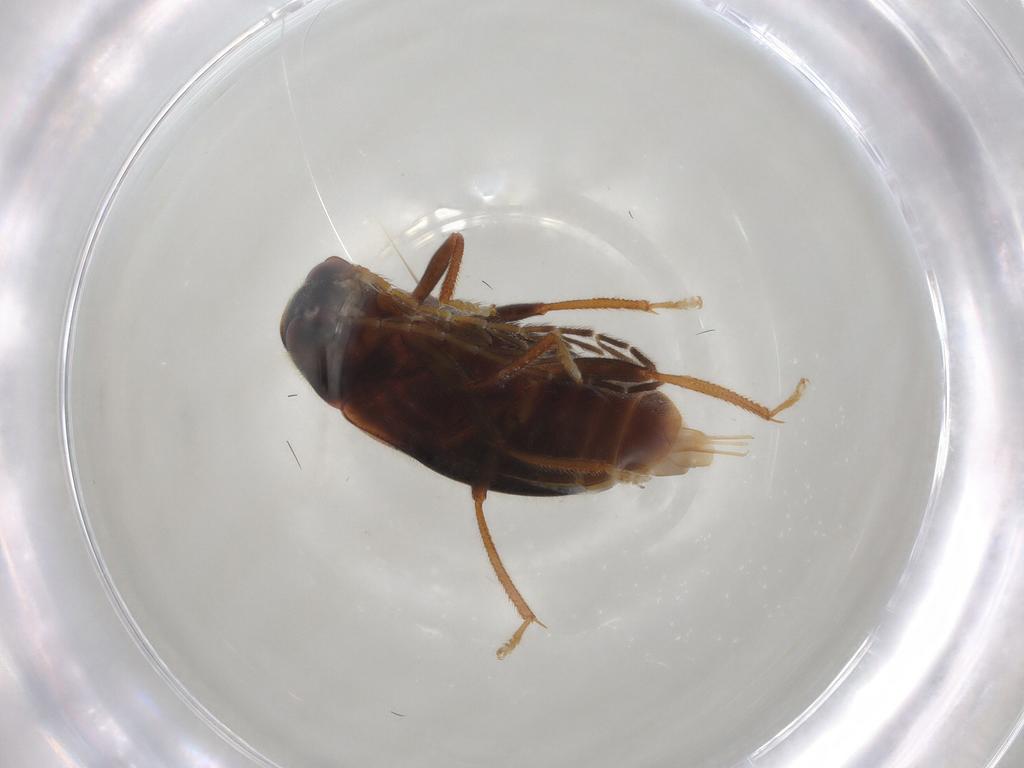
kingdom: Animalia
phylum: Arthropoda
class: Insecta
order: Coleoptera
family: Ptilodactylidae
